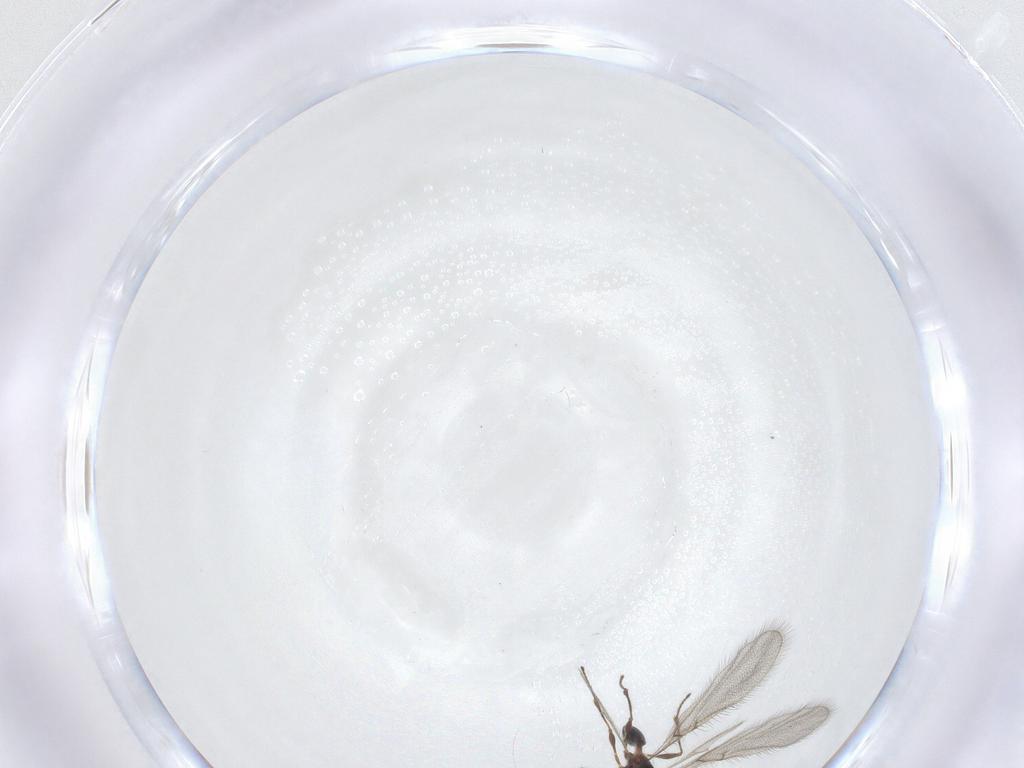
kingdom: Animalia
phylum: Arthropoda
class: Insecta
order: Hymenoptera
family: Diapriidae
